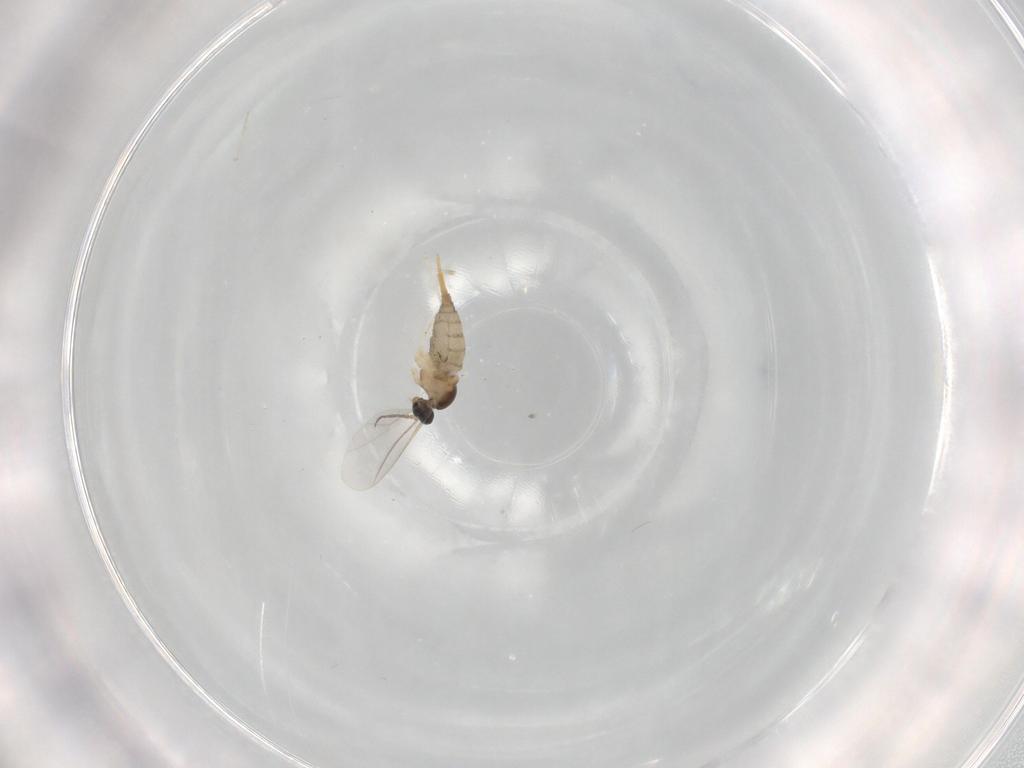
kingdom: Animalia
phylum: Arthropoda
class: Insecta
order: Diptera
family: Cecidomyiidae
